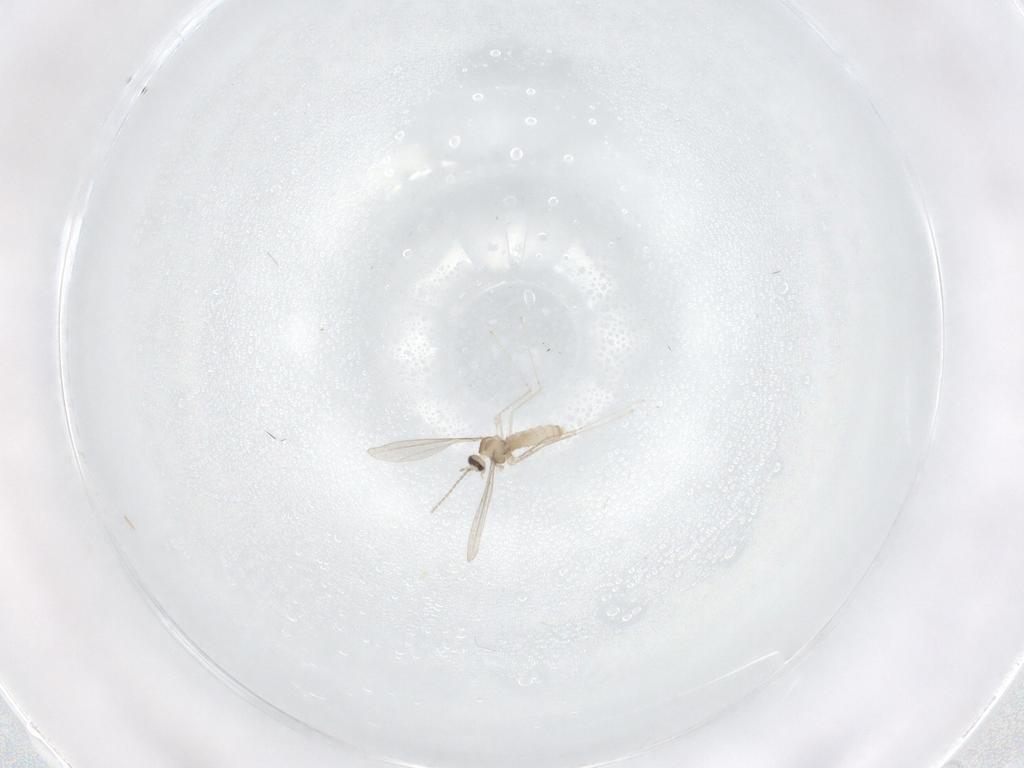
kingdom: Animalia
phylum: Arthropoda
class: Insecta
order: Diptera
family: Cecidomyiidae
